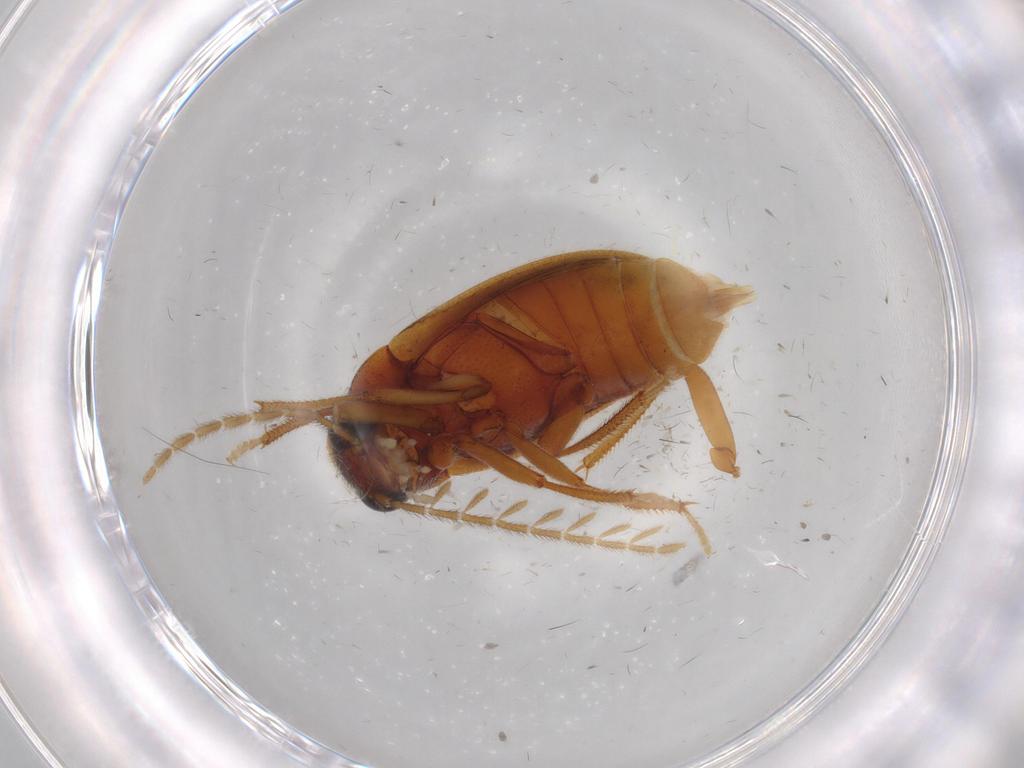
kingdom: Animalia
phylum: Arthropoda
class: Insecta
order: Coleoptera
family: Ptilodactylidae
